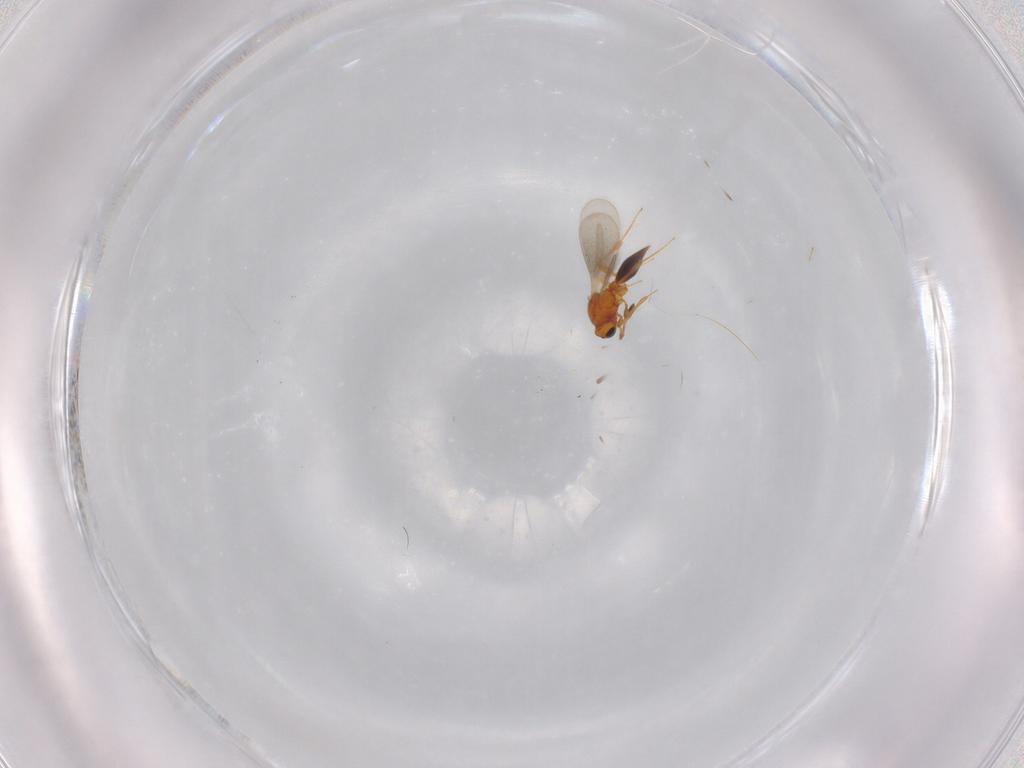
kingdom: Animalia
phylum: Arthropoda
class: Insecta
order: Hymenoptera
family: Platygastridae
